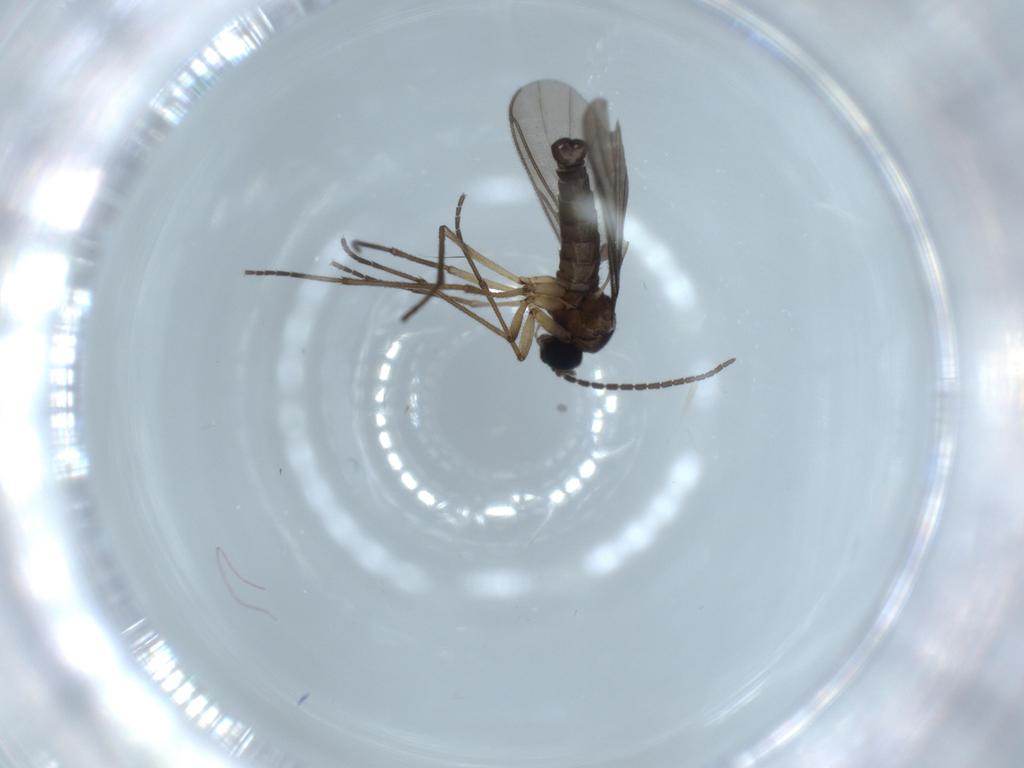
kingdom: Animalia
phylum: Arthropoda
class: Insecta
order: Diptera
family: Sciaridae
